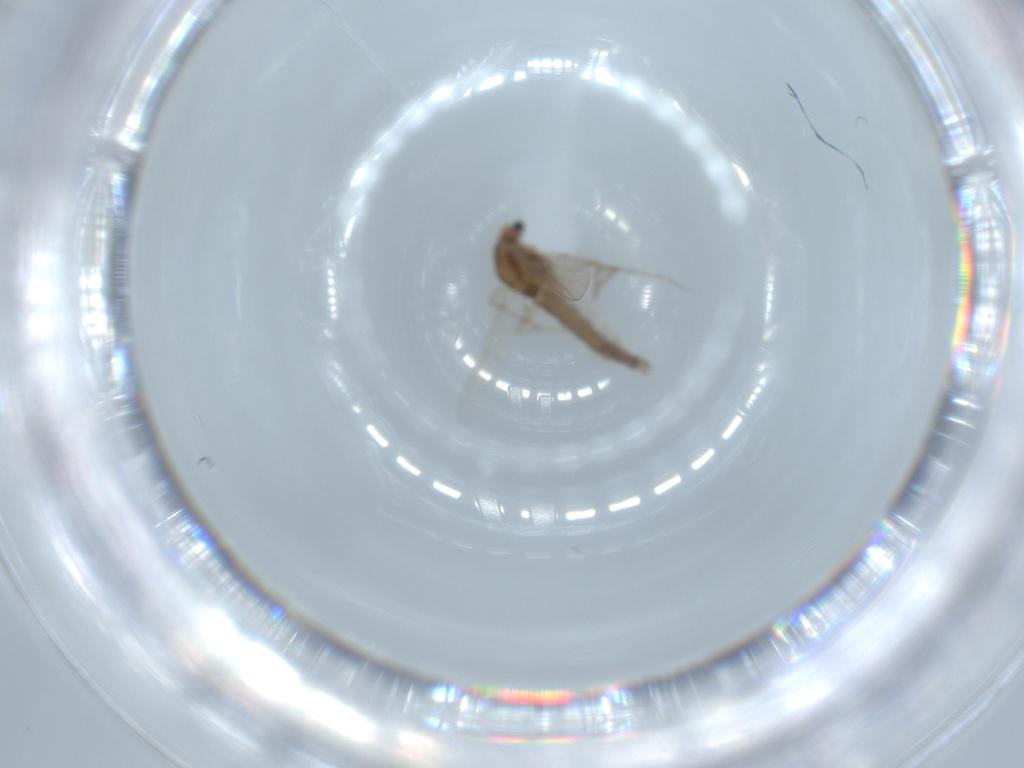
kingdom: Animalia
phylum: Arthropoda
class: Insecta
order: Diptera
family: Chironomidae
